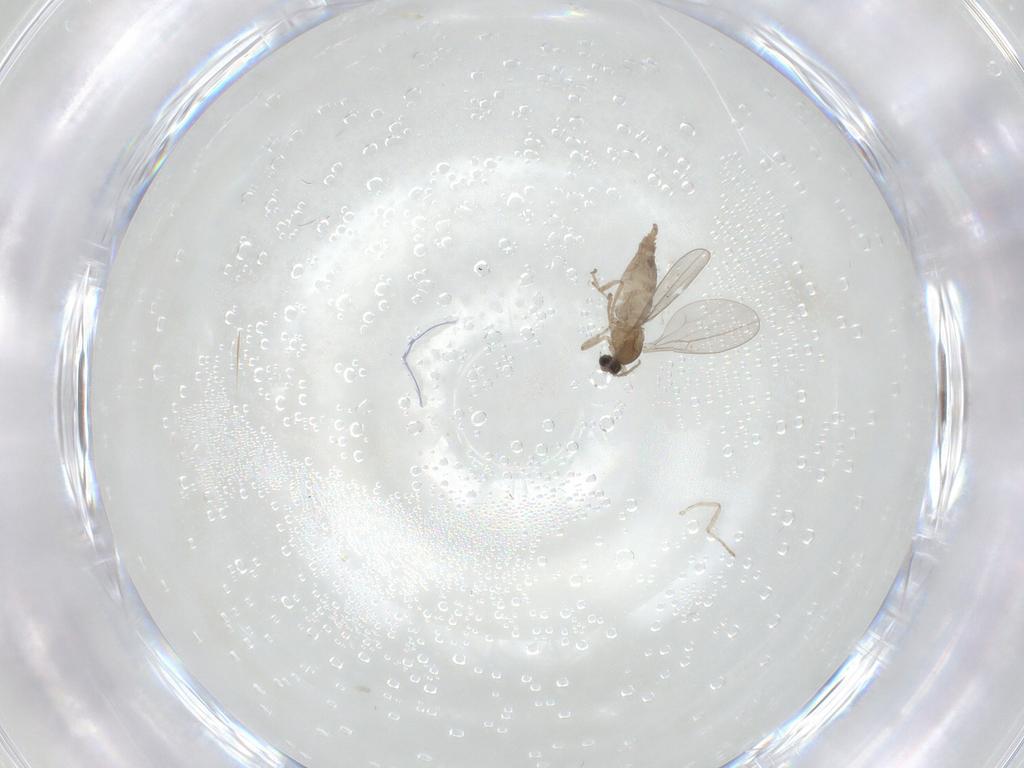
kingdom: Animalia
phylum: Arthropoda
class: Insecta
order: Diptera
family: Cecidomyiidae
